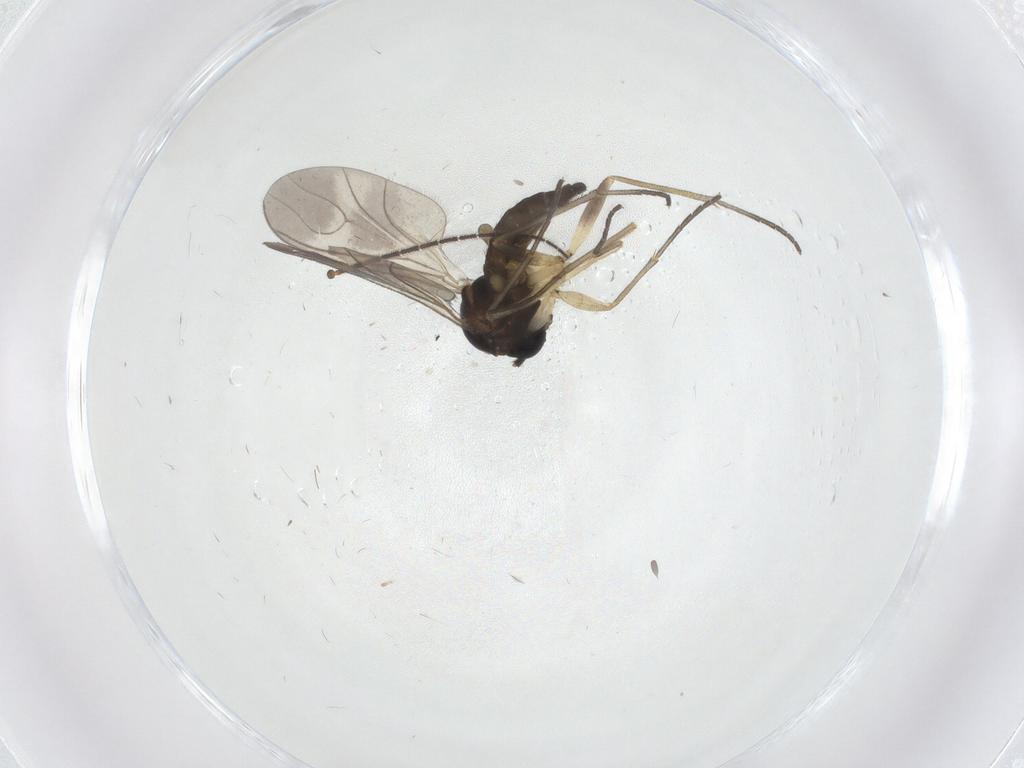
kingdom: Animalia
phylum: Arthropoda
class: Insecta
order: Diptera
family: Sciaridae
